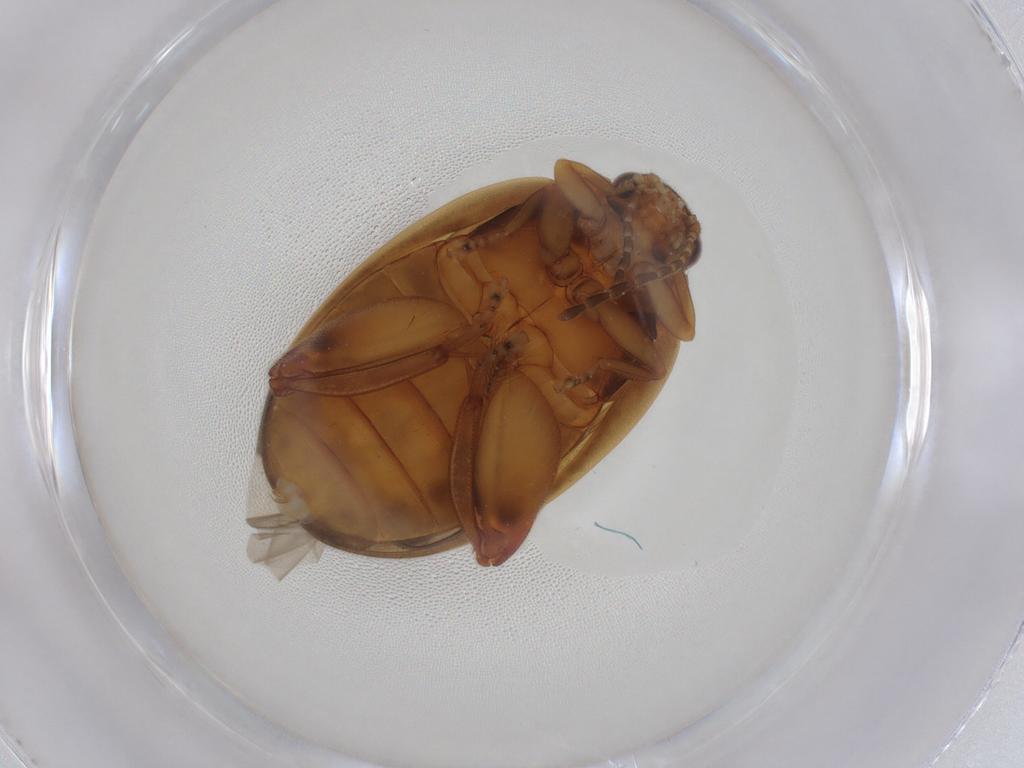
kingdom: Animalia
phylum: Arthropoda
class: Insecta
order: Coleoptera
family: Scirtidae
